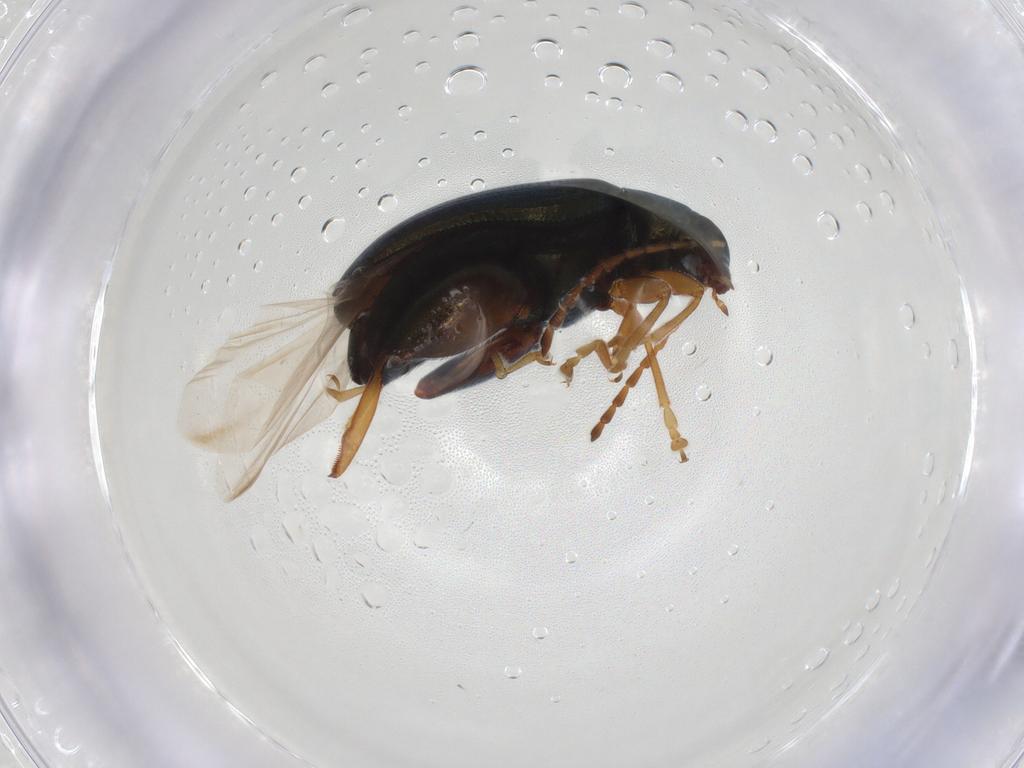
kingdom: Animalia
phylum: Arthropoda
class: Insecta
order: Coleoptera
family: Chrysomelidae
